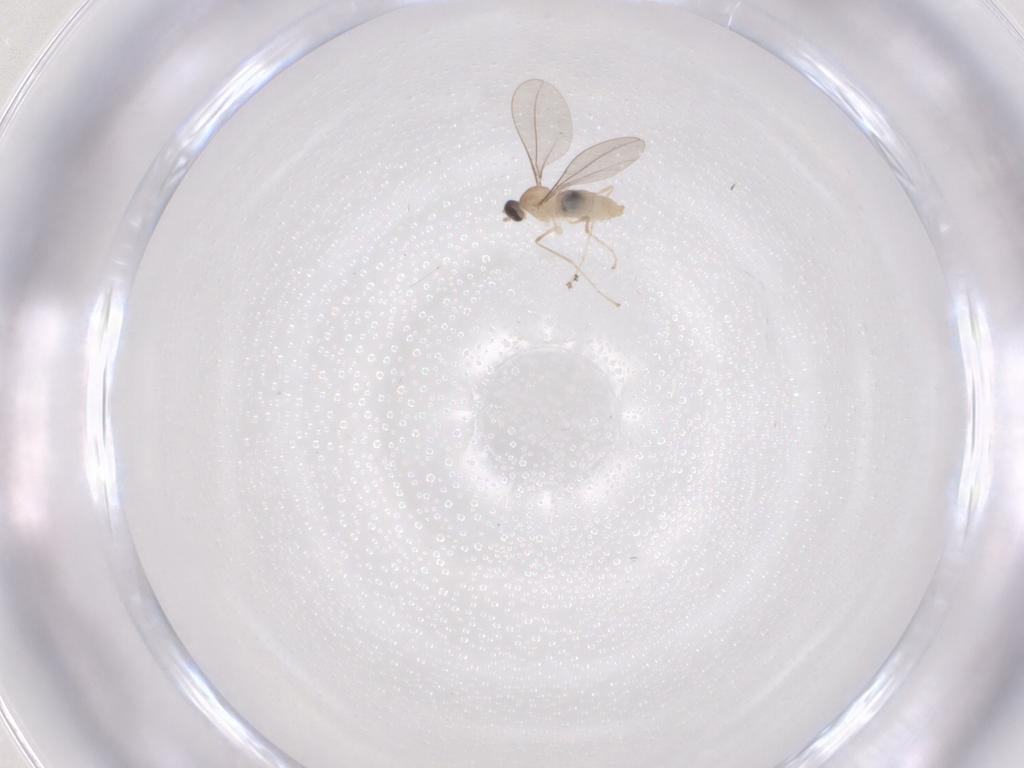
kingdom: Animalia
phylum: Arthropoda
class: Insecta
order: Diptera
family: Cecidomyiidae
